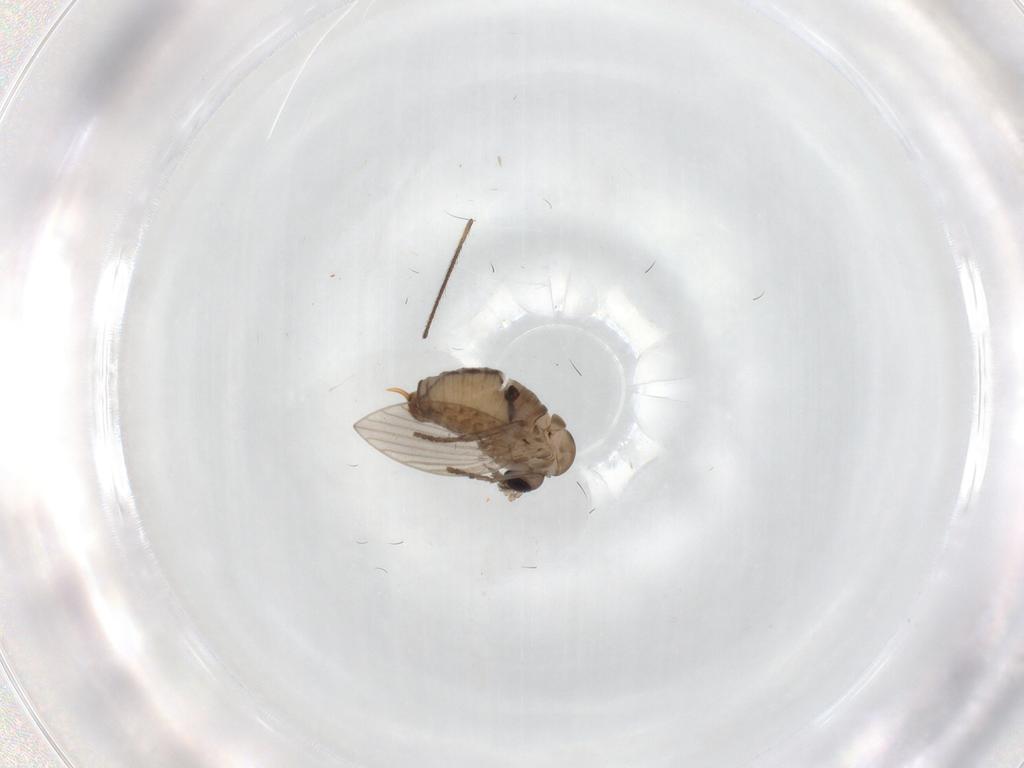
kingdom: Animalia
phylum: Arthropoda
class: Insecta
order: Diptera
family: Psychodidae
